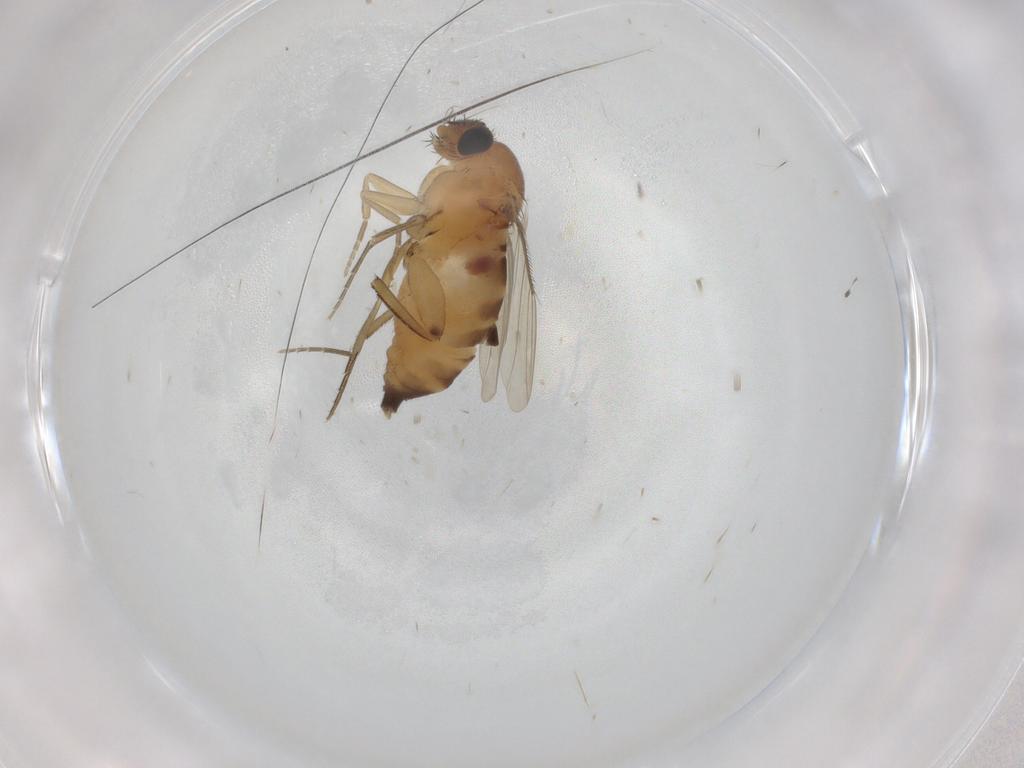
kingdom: Animalia
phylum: Arthropoda
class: Insecta
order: Diptera
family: Phoridae
